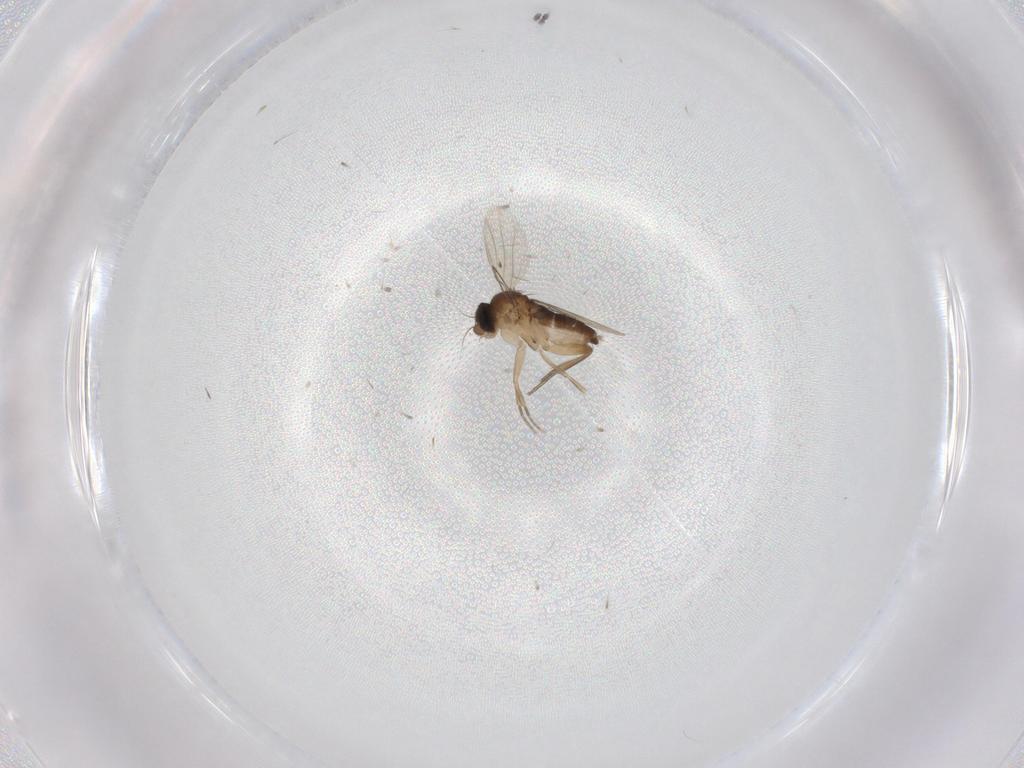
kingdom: Animalia
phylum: Arthropoda
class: Insecta
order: Diptera
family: Phoridae
